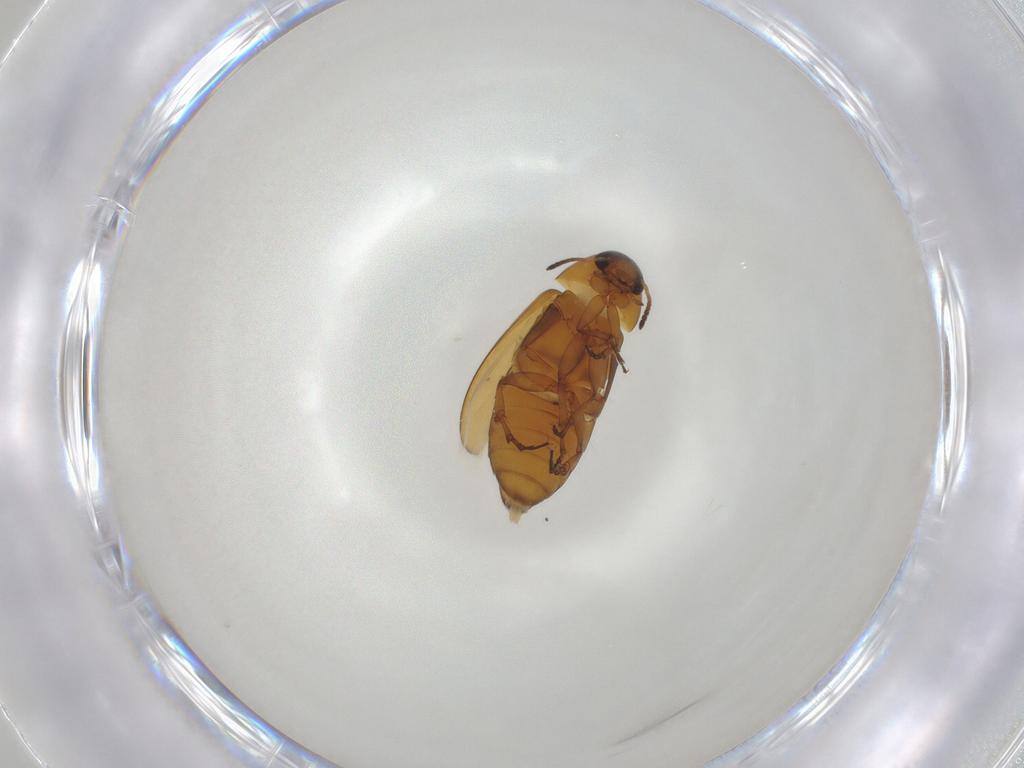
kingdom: Animalia
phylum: Arthropoda
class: Insecta
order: Coleoptera
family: Scraptiidae
